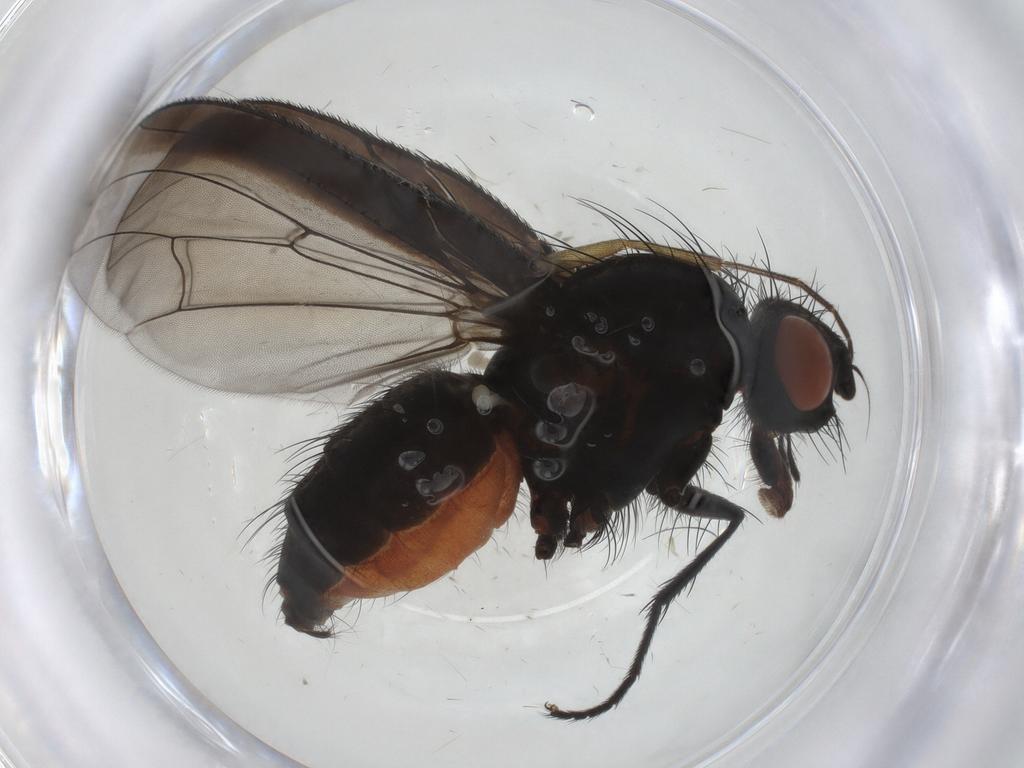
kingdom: Animalia
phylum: Arthropoda
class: Insecta
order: Diptera
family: Anthomyiidae
